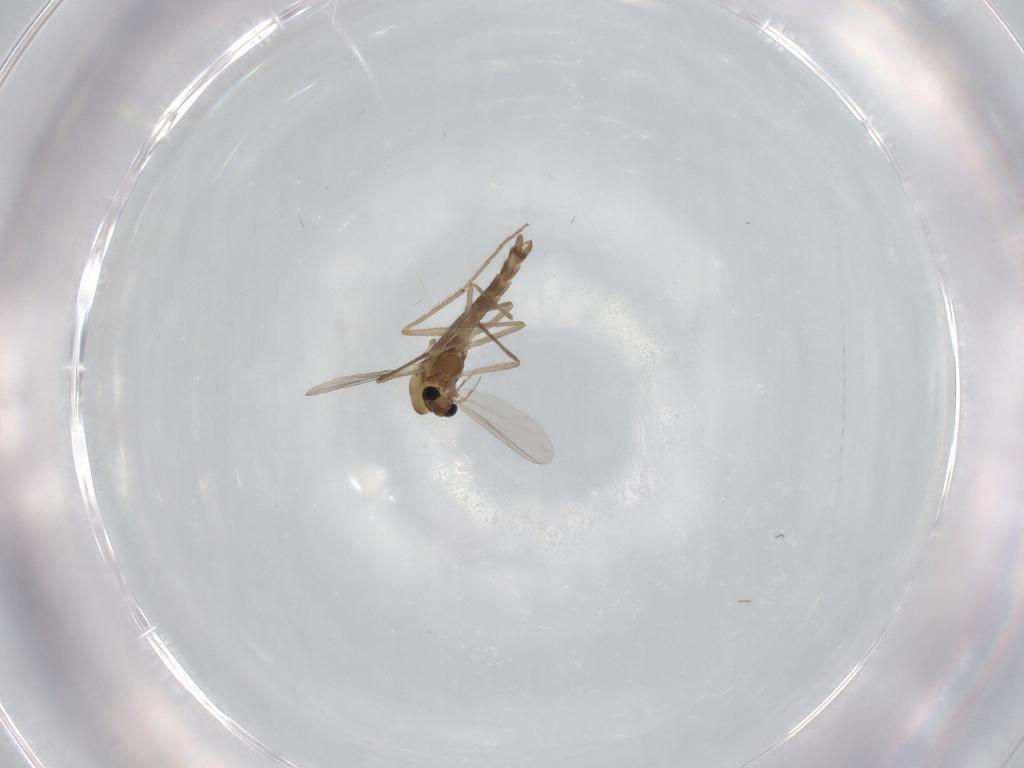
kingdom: Animalia
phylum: Arthropoda
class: Insecta
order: Diptera
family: Chironomidae
